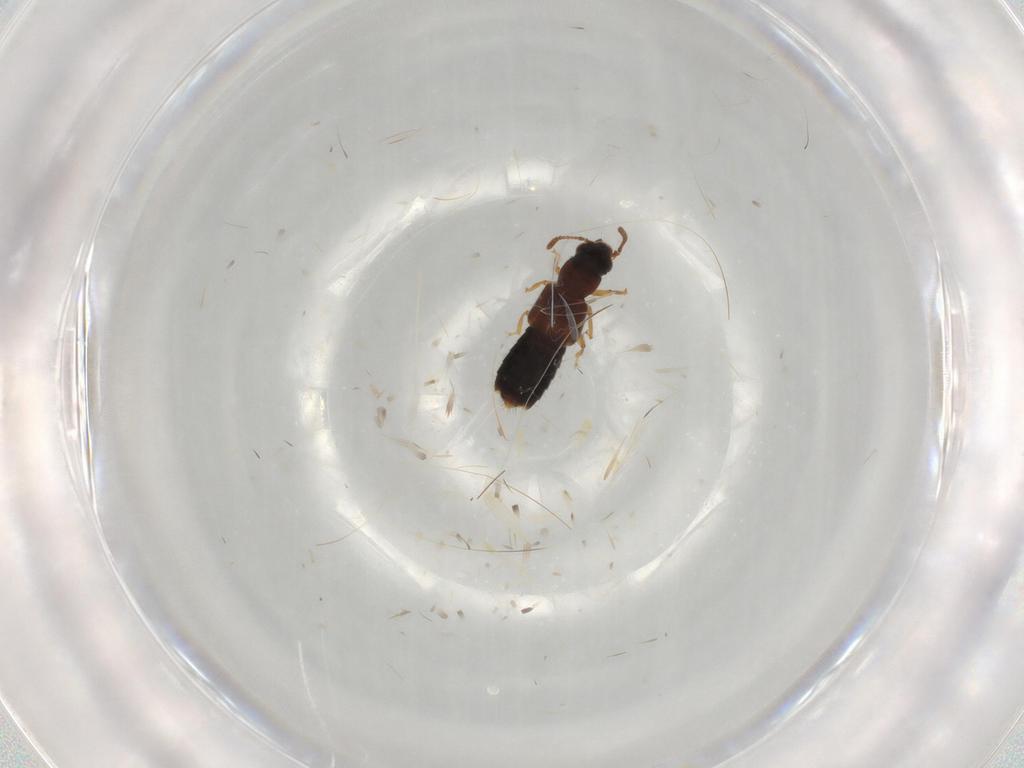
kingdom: Animalia
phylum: Arthropoda
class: Insecta
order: Coleoptera
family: Staphylinidae
